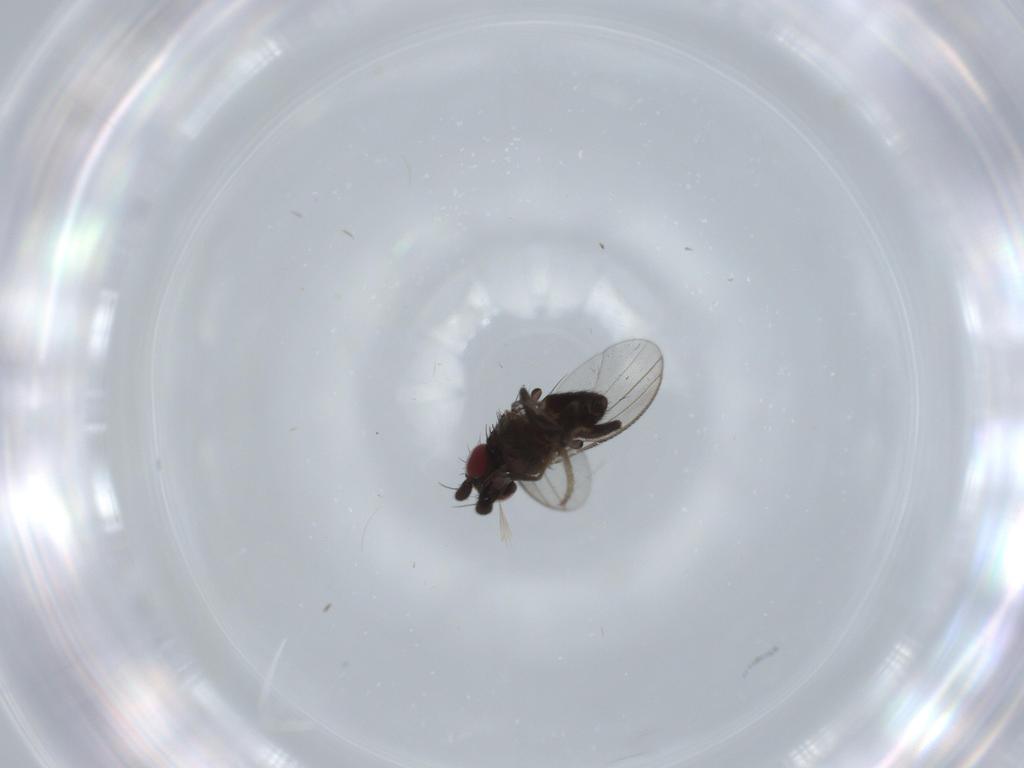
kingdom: Animalia
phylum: Arthropoda
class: Insecta
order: Diptera
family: Milichiidae
